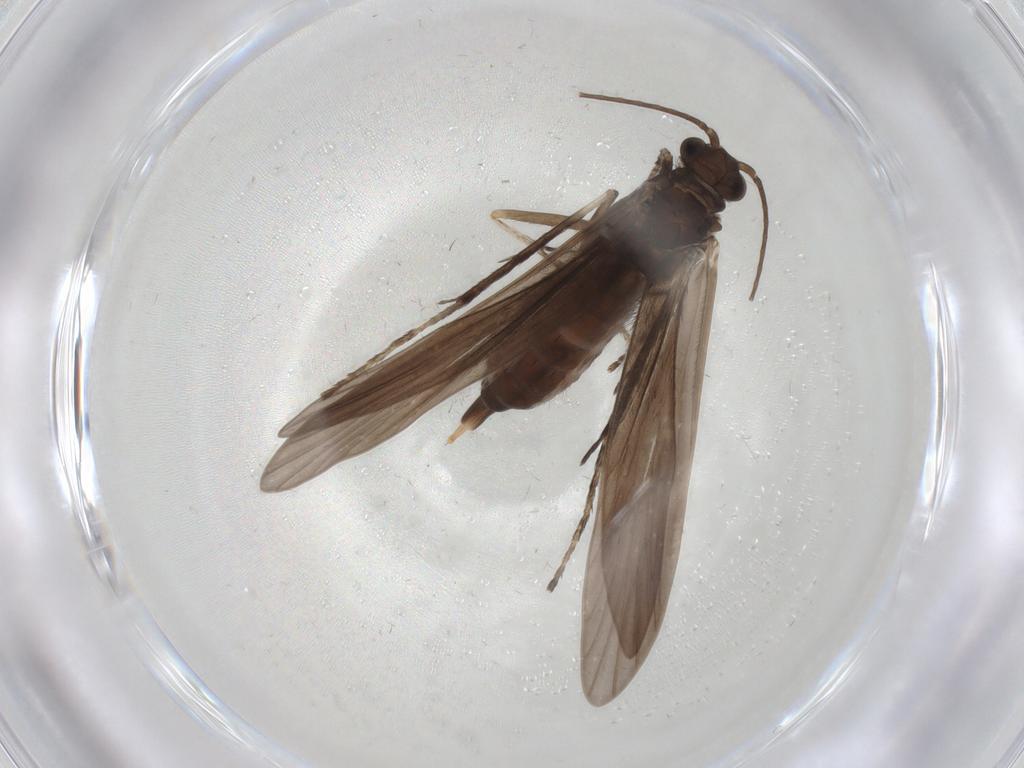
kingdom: Animalia
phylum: Arthropoda
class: Insecta
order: Trichoptera
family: Xiphocentronidae
